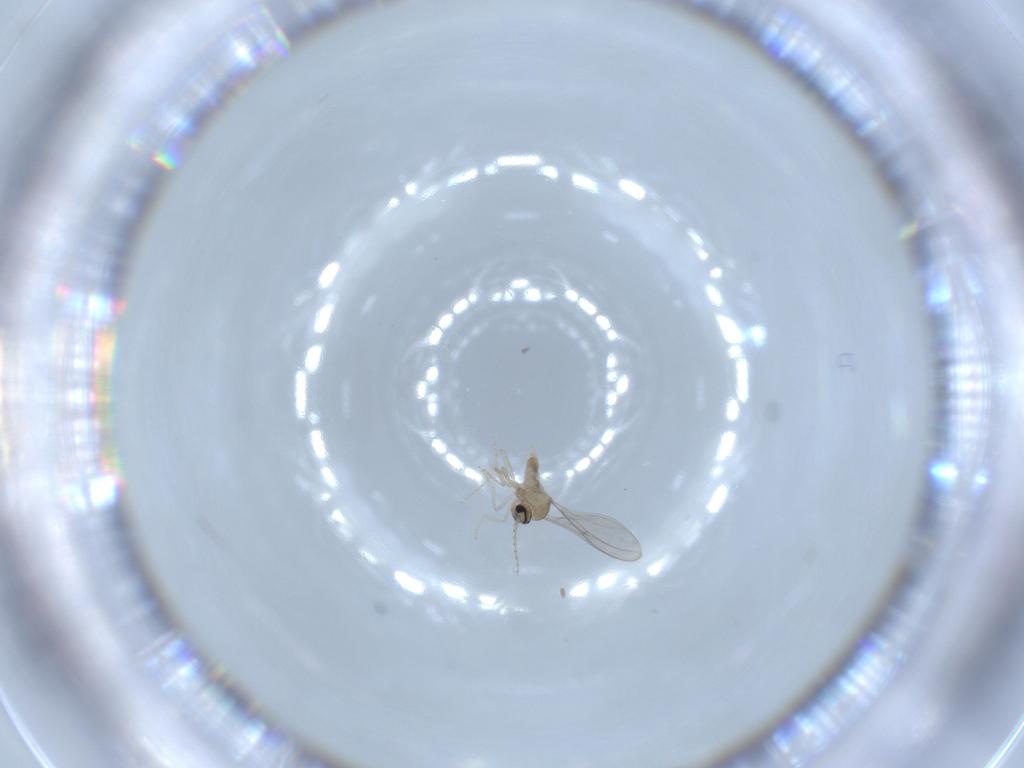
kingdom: Animalia
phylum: Arthropoda
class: Insecta
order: Diptera
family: Cecidomyiidae
